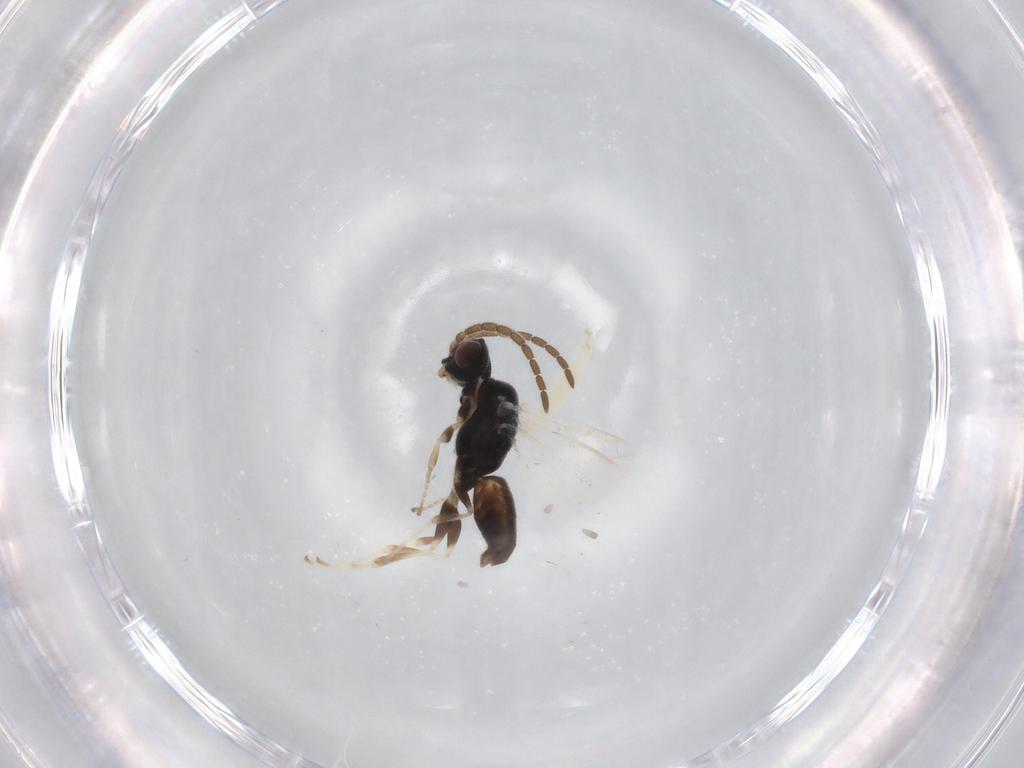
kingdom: Animalia
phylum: Arthropoda
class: Insecta
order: Hymenoptera
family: Dryinidae
